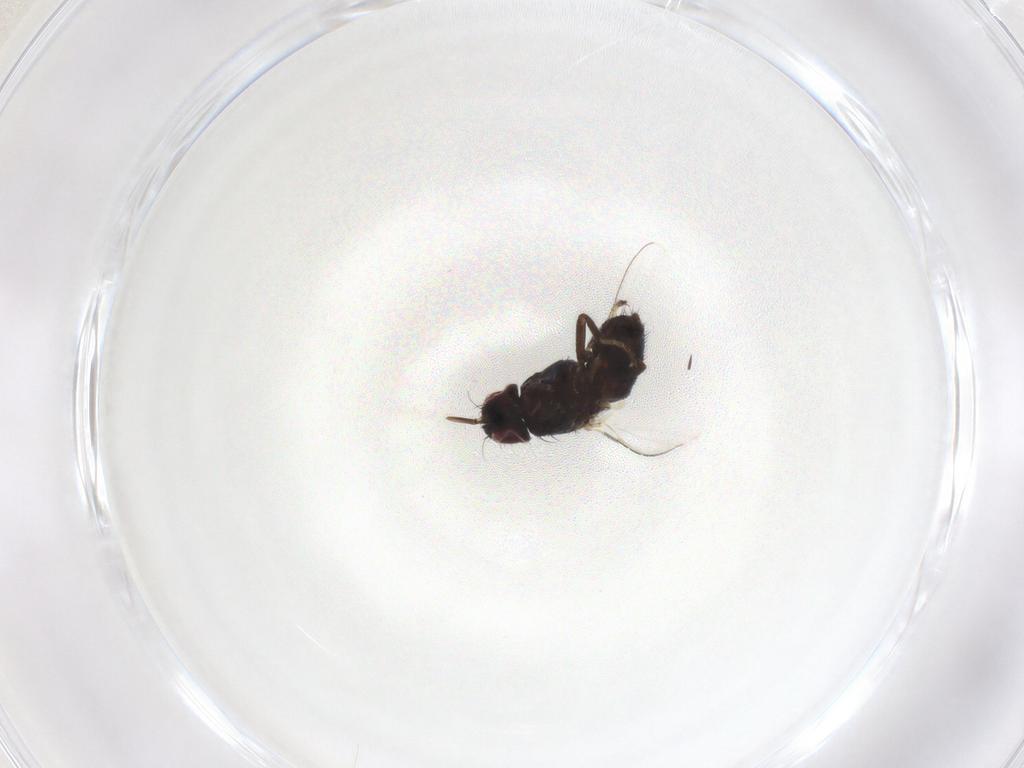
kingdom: Animalia
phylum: Arthropoda
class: Insecta
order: Diptera
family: Milichiidae
